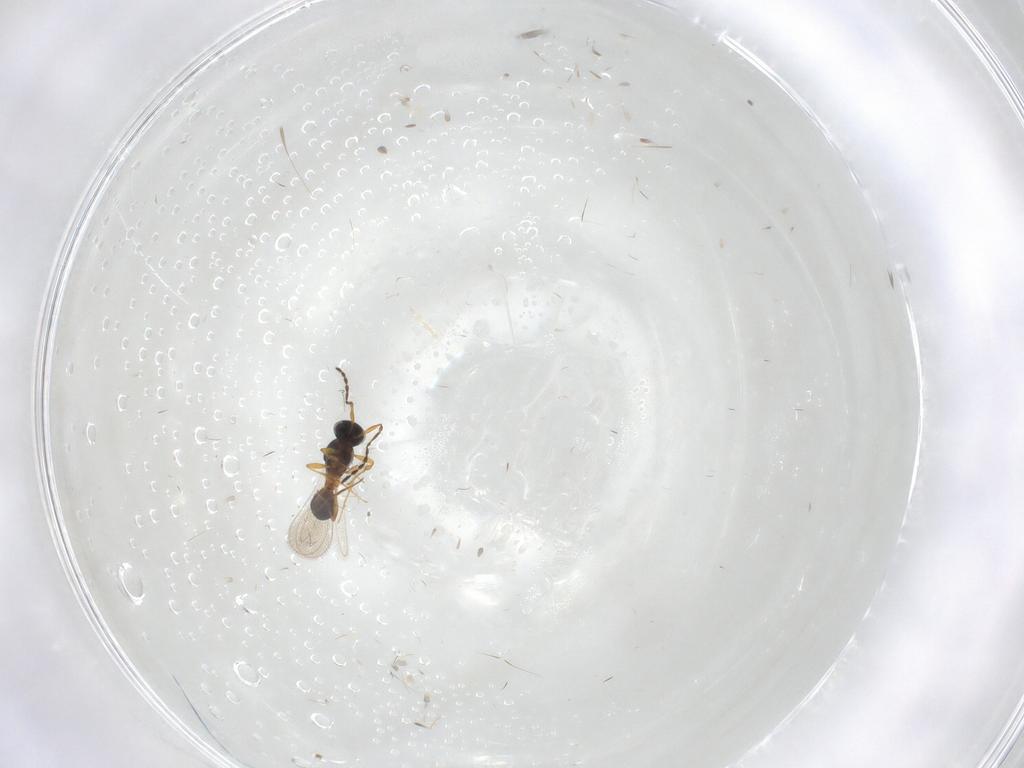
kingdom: Animalia
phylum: Arthropoda
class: Insecta
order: Hymenoptera
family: Platygastridae
